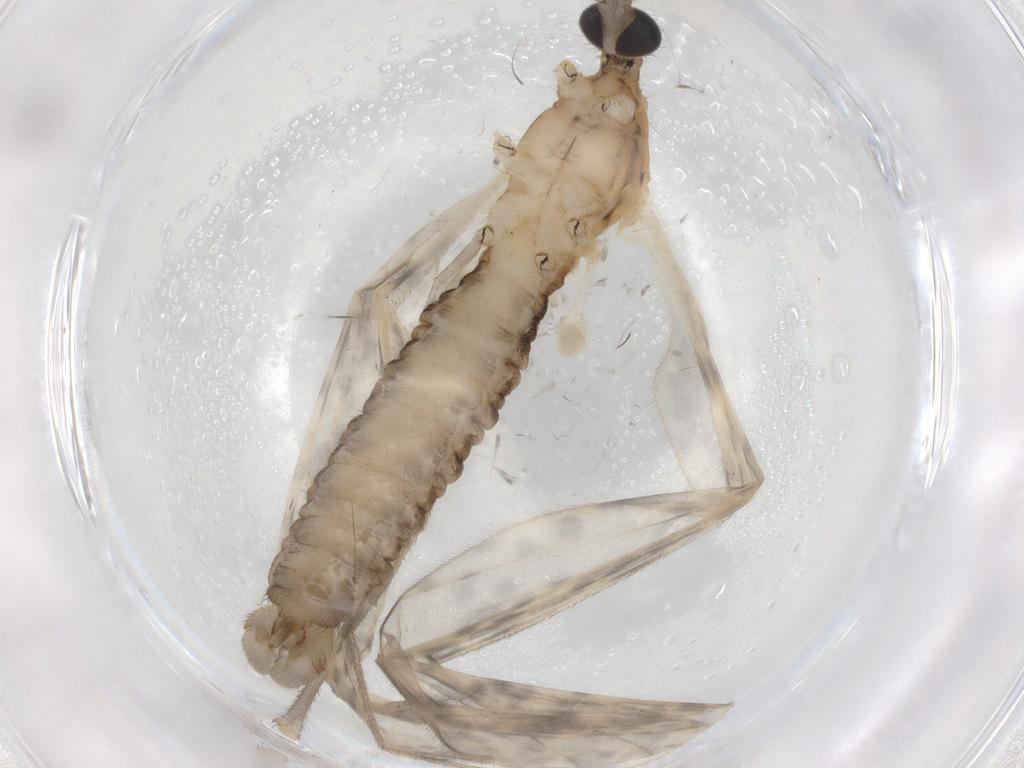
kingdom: Animalia
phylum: Arthropoda
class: Insecta
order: Diptera
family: Limoniidae
